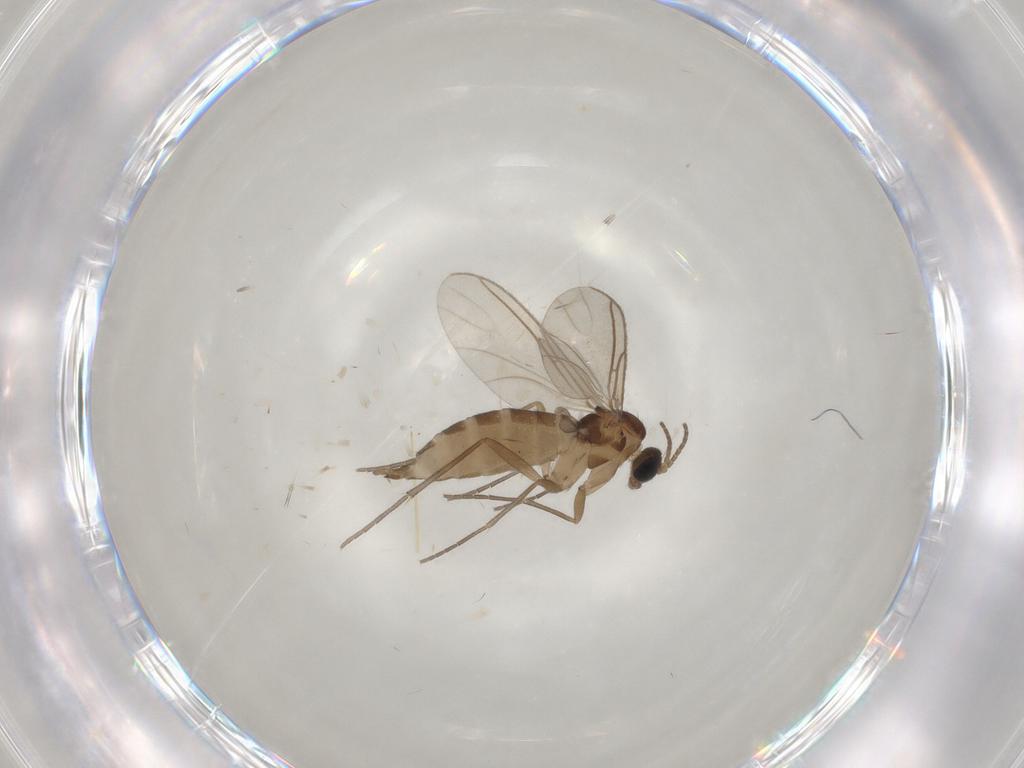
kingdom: Animalia
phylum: Arthropoda
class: Insecta
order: Diptera
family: Sciaridae
